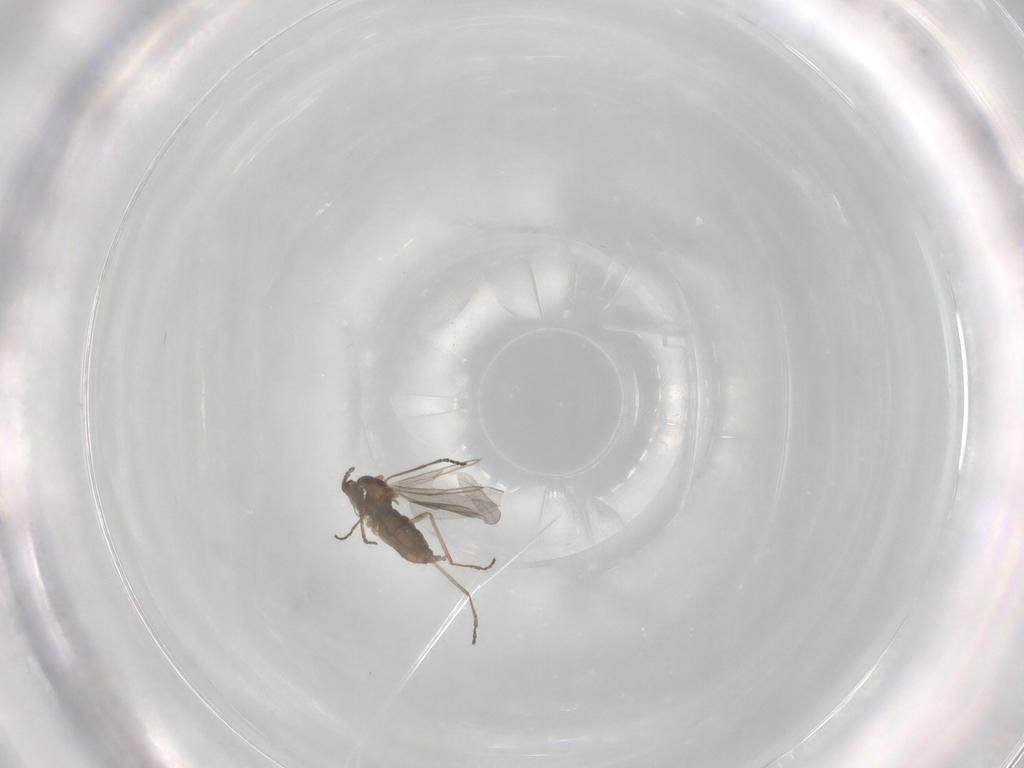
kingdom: Animalia
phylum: Arthropoda
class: Insecta
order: Diptera
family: Cecidomyiidae
